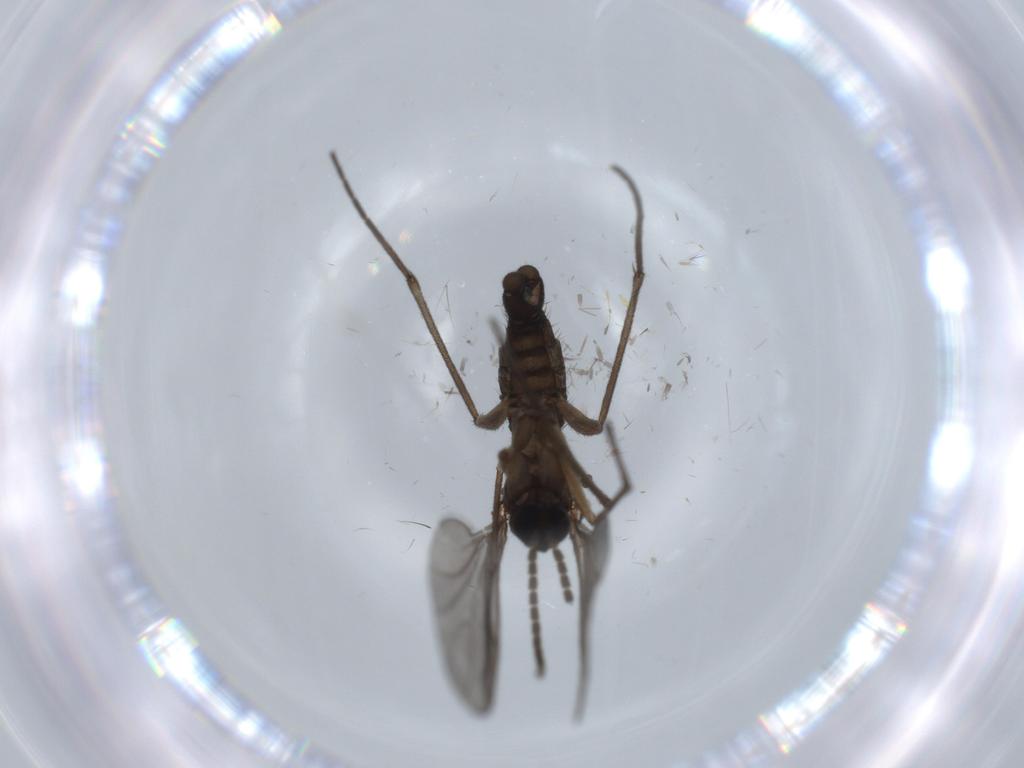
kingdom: Animalia
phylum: Arthropoda
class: Insecta
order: Diptera
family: Sciaridae
